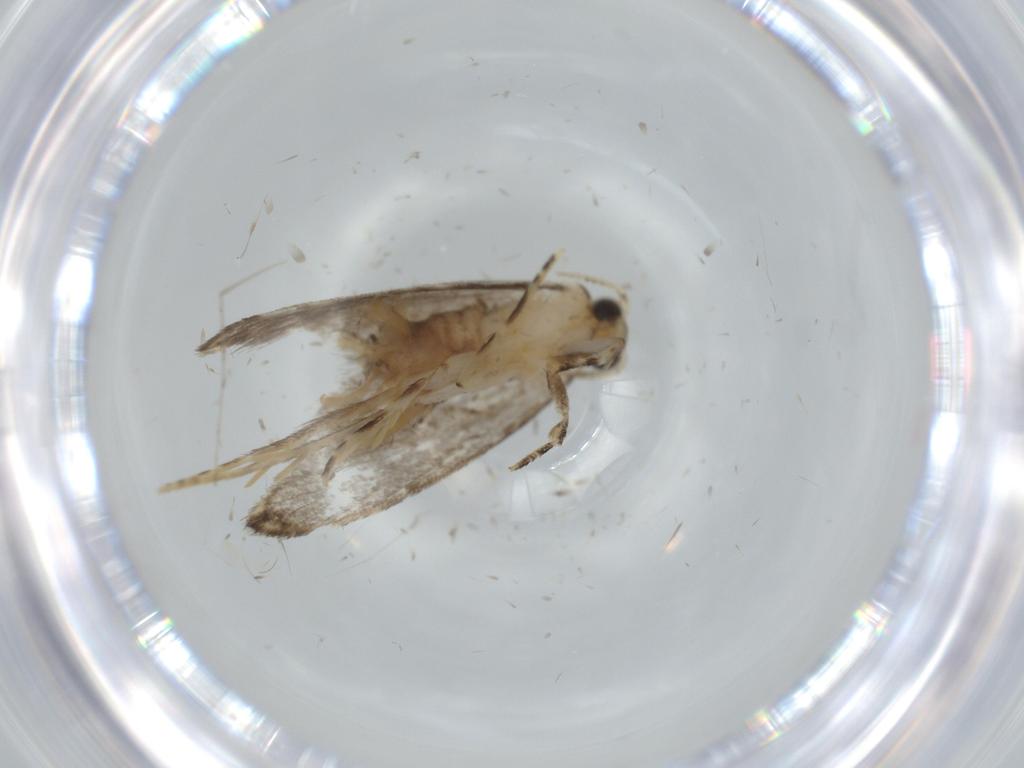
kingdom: Animalia
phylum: Arthropoda
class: Insecta
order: Lepidoptera
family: Tineidae
